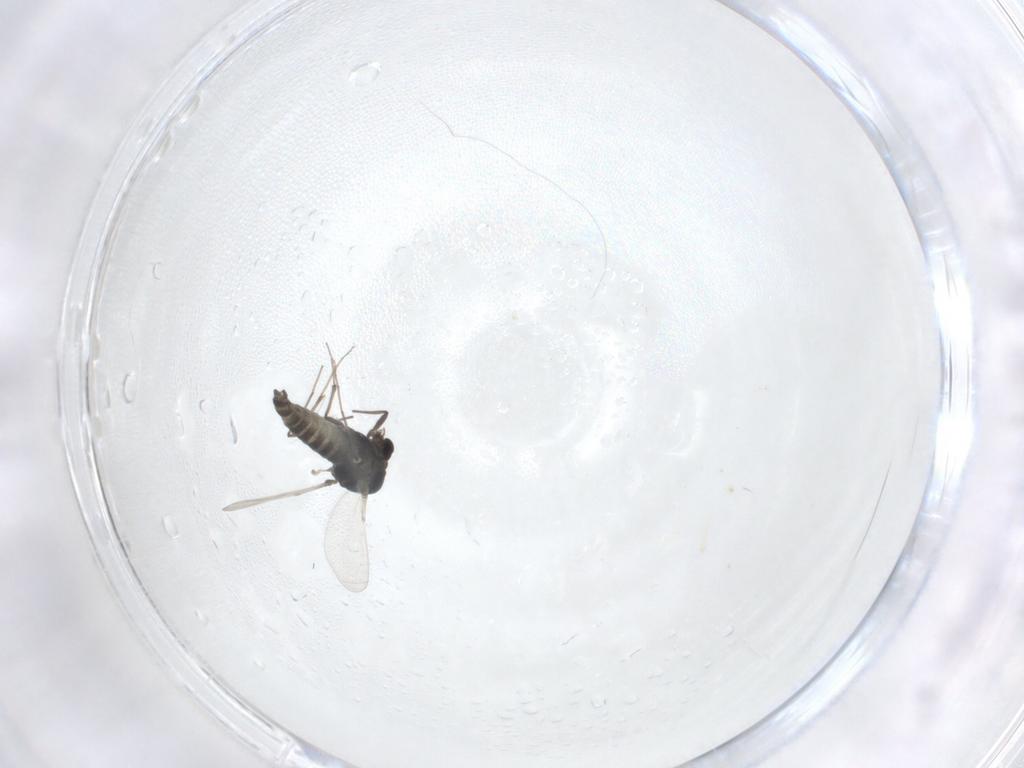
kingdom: Animalia
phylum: Arthropoda
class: Insecta
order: Diptera
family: Chironomidae
